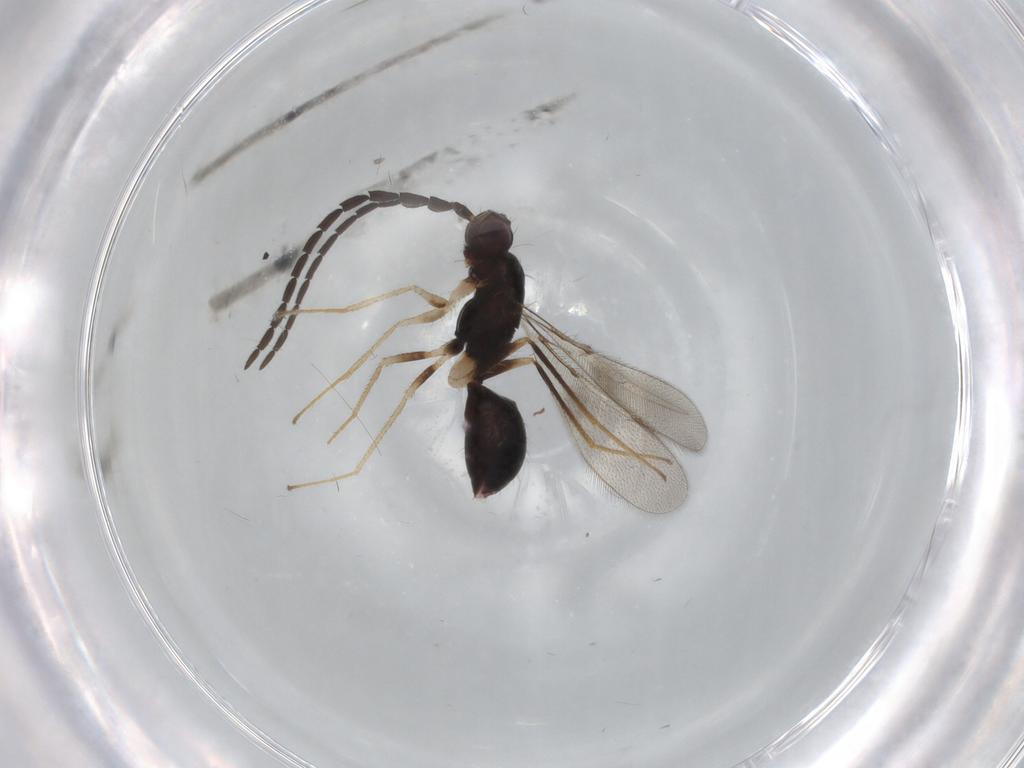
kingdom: Animalia
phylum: Arthropoda
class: Insecta
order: Hymenoptera
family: Mymaridae
